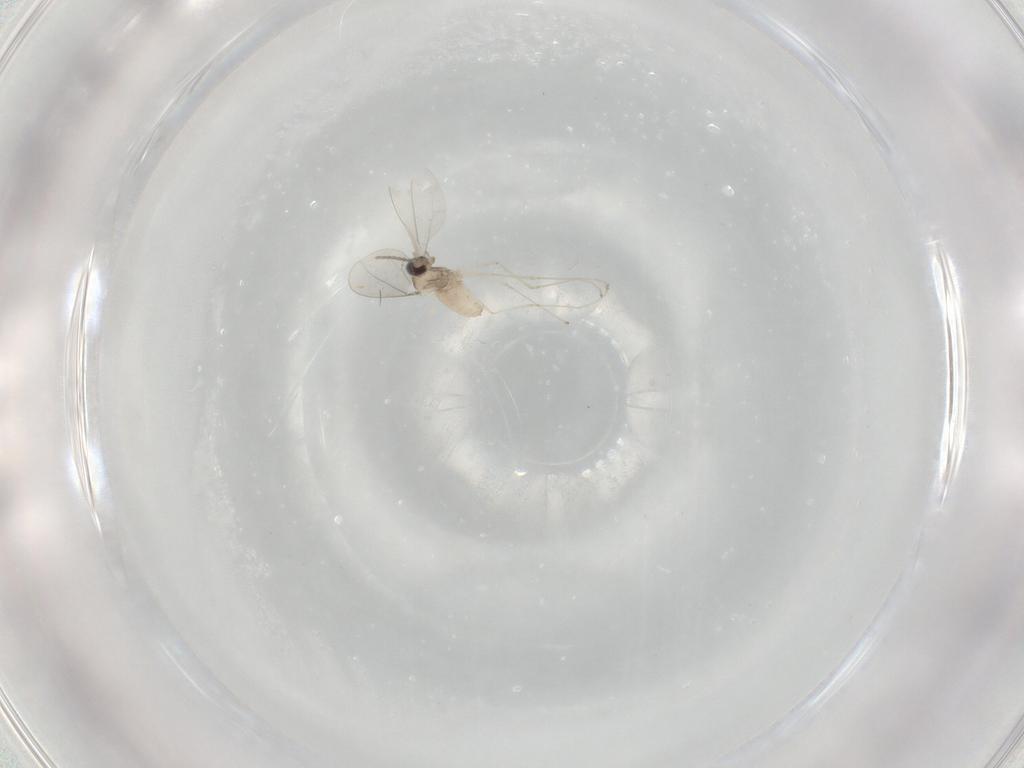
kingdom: Animalia
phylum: Arthropoda
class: Insecta
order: Diptera
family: Cecidomyiidae
